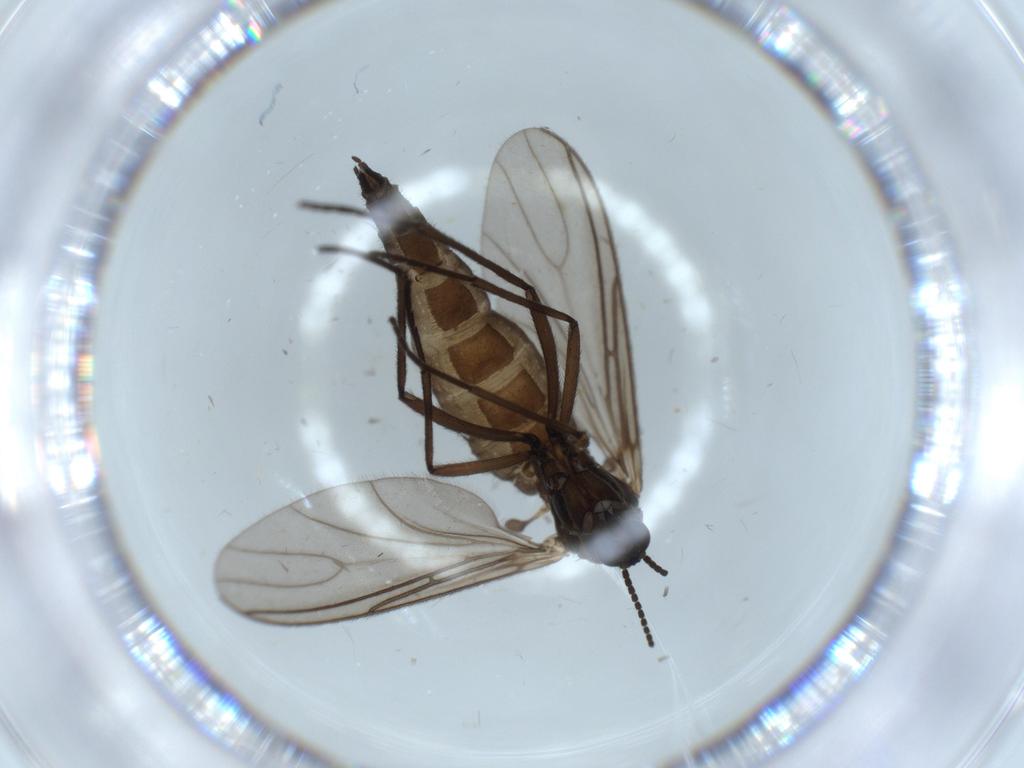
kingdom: Animalia
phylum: Arthropoda
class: Insecta
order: Diptera
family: Sciaridae
